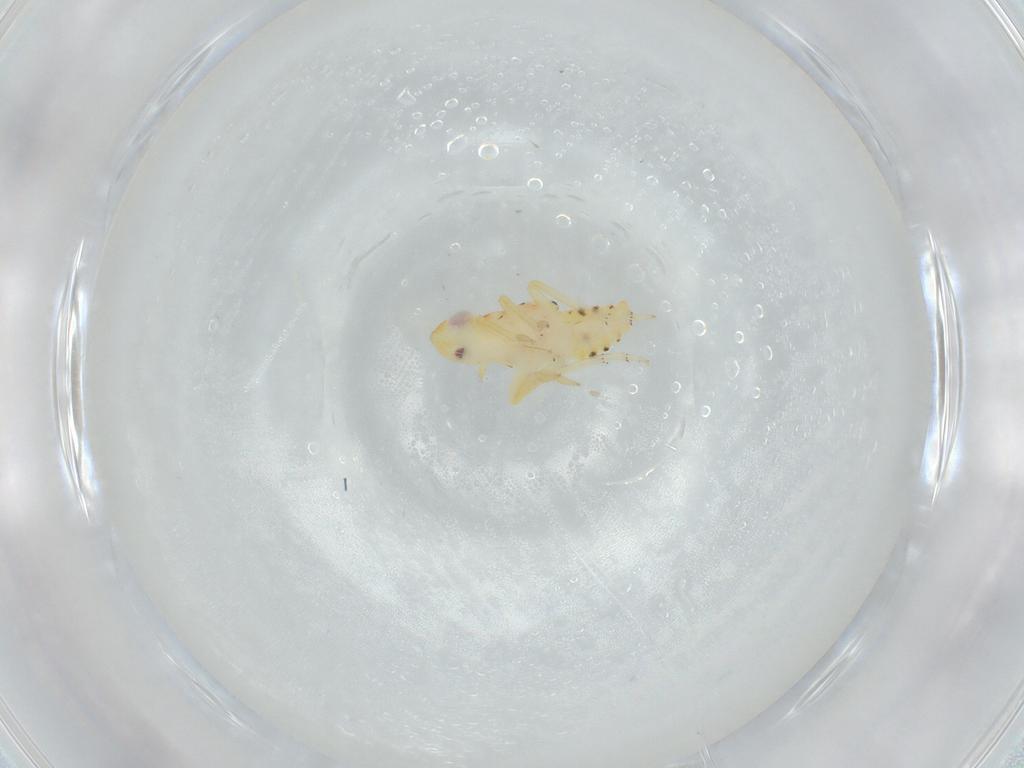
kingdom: Animalia
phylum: Arthropoda
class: Insecta
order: Hemiptera
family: Tropiduchidae
